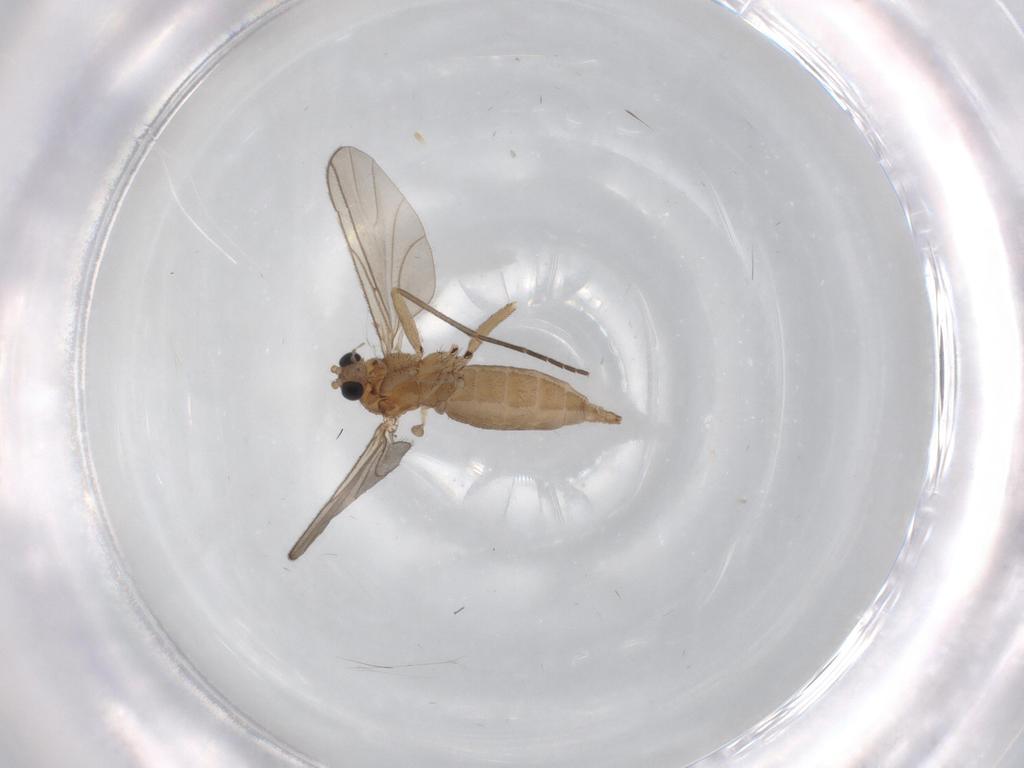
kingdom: Animalia
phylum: Arthropoda
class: Insecta
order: Diptera
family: Sciaridae
